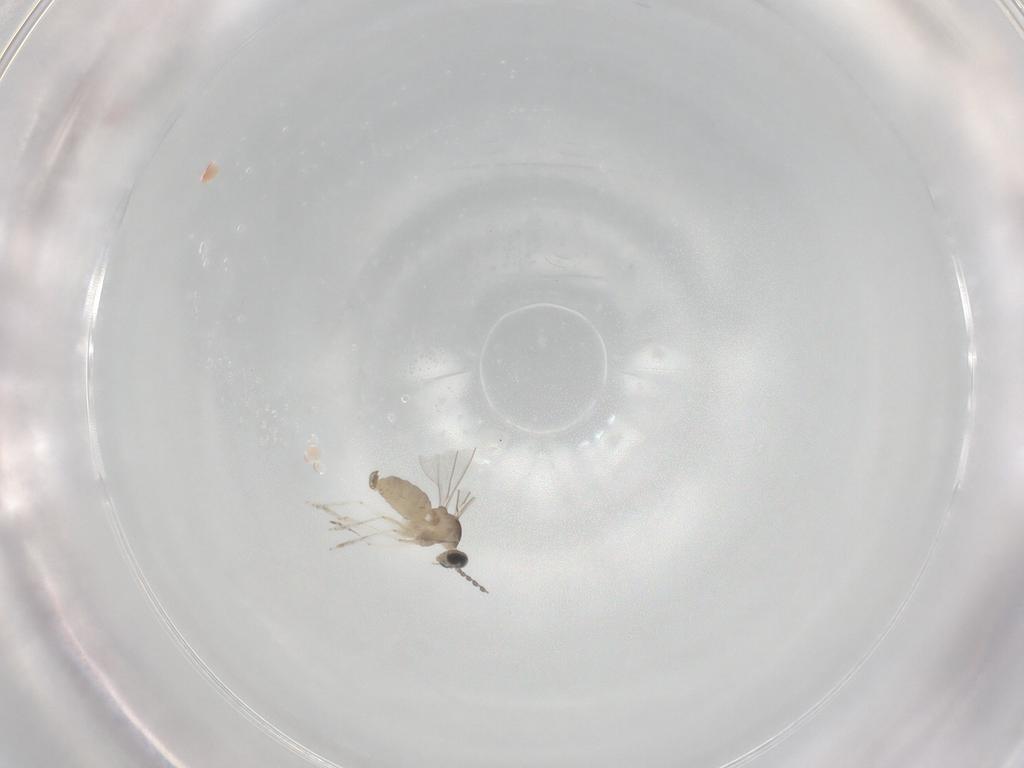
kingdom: Animalia
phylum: Arthropoda
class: Insecta
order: Diptera
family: Cecidomyiidae
